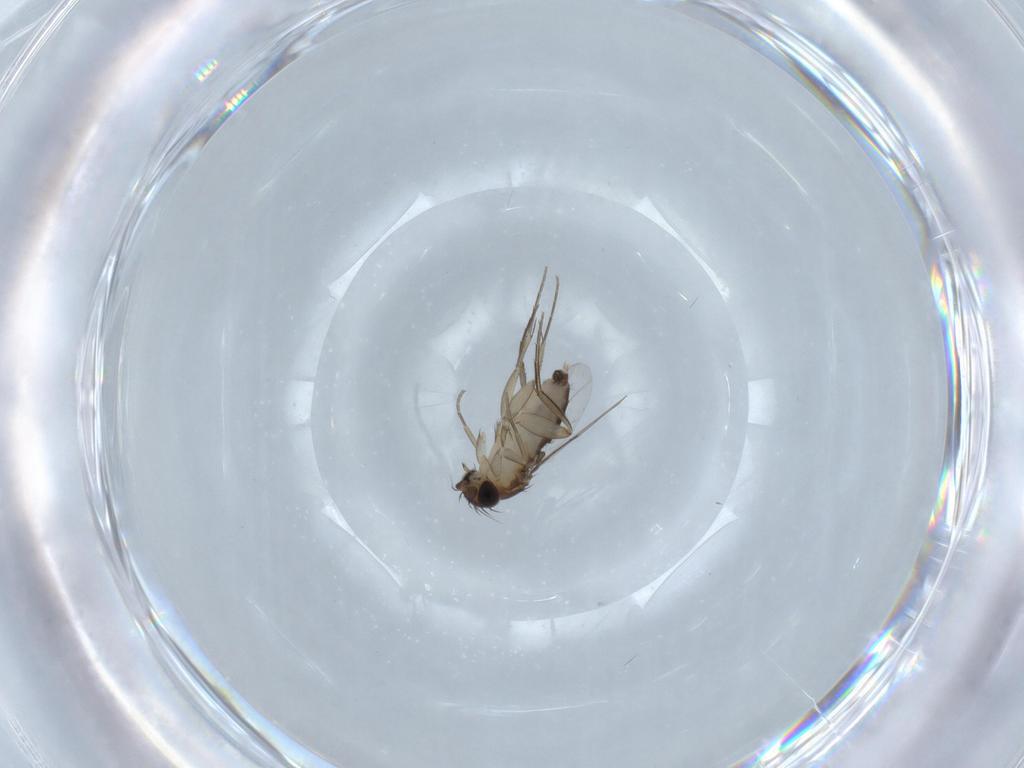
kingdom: Animalia
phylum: Arthropoda
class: Insecta
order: Diptera
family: Phoridae
